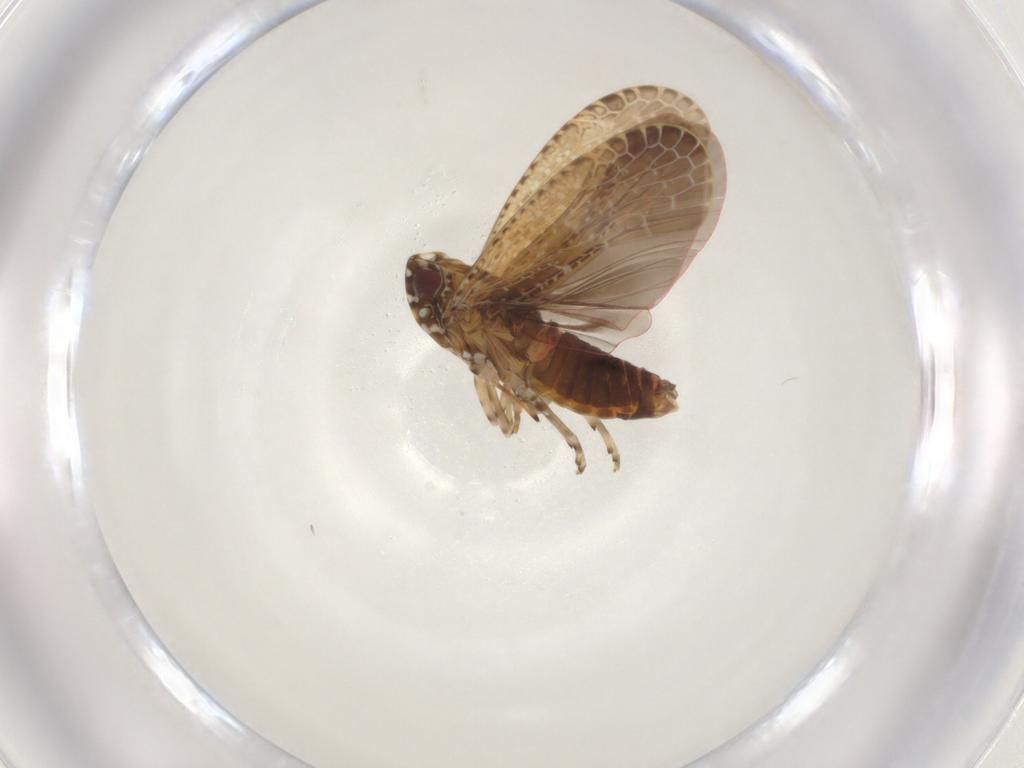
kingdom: Animalia
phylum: Arthropoda
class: Insecta
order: Hemiptera
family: Achilidae
